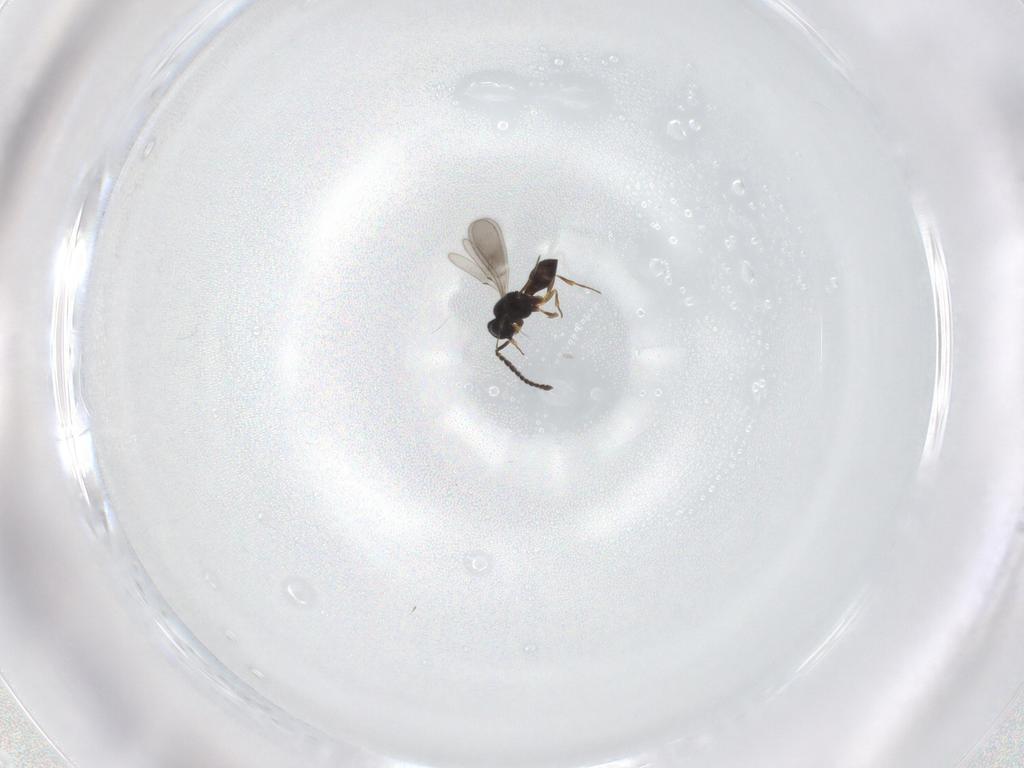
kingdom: Animalia
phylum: Arthropoda
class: Insecta
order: Hymenoptera
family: Scelionidae
